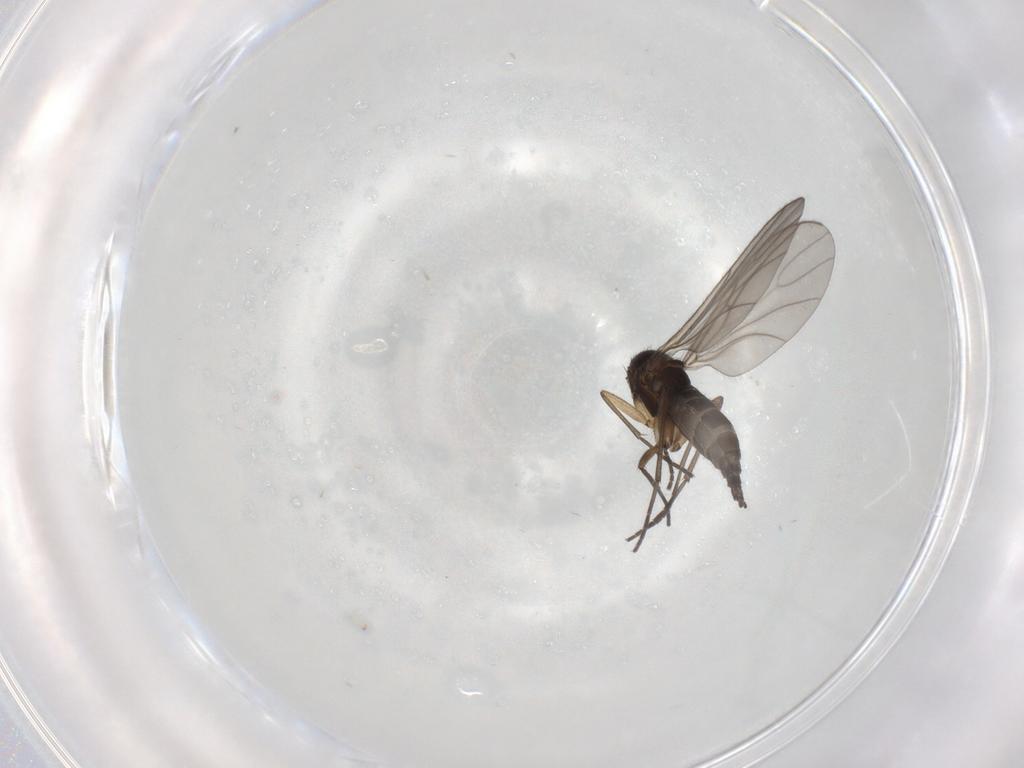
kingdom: Animalia
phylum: Arthropoda
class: Insecta
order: Diptera
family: Sciaridae
